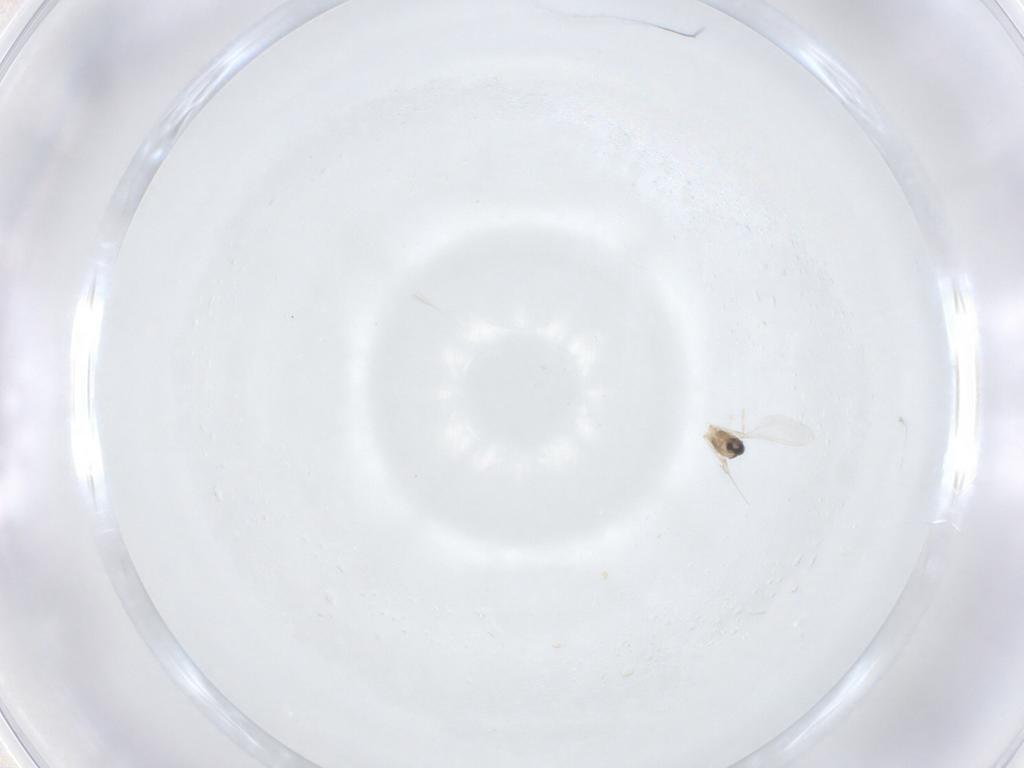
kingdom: Animalia
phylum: Arthropoda
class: Insecta
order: Diptera
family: Cecidomyiidae
